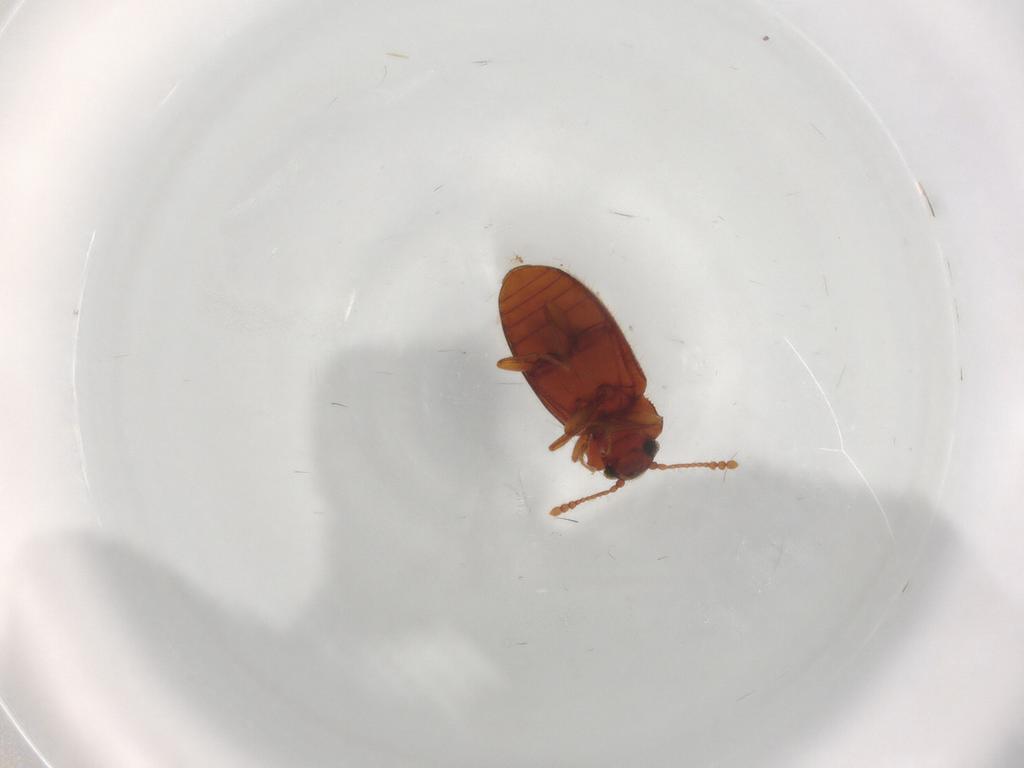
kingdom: Animalia
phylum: Arthropoda
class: Insecta
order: Coleoptera
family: Cryptophagidae
